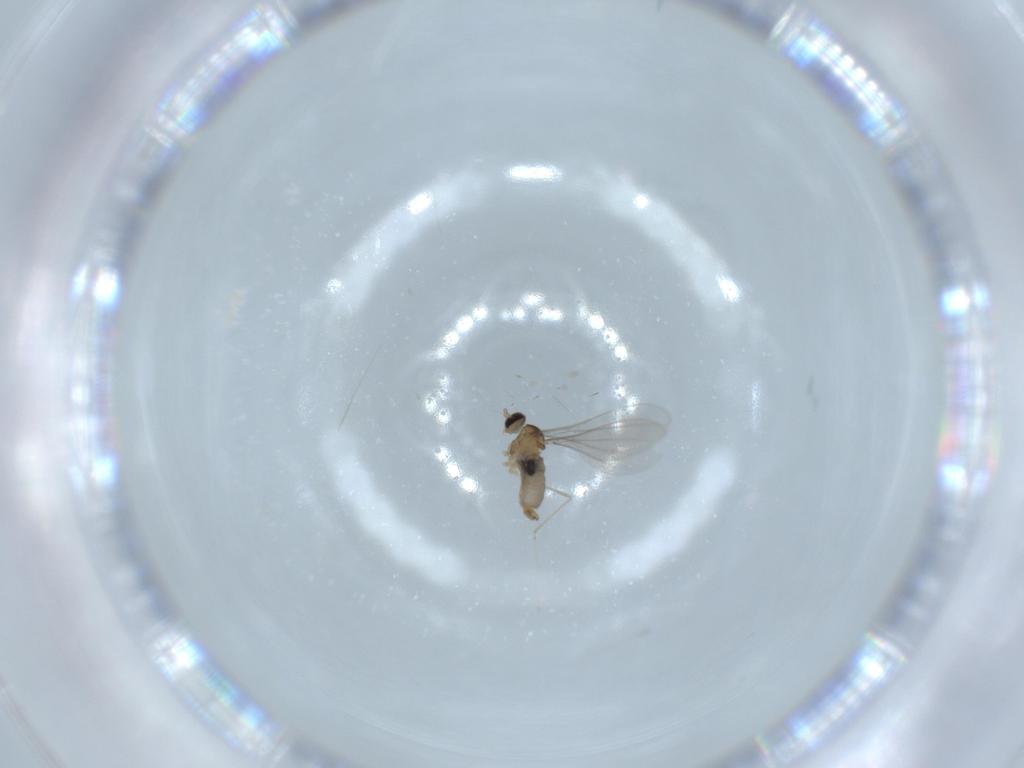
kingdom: Animalia
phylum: Arthropoda
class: Insecta
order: Diptera
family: Cecidomyiidae
